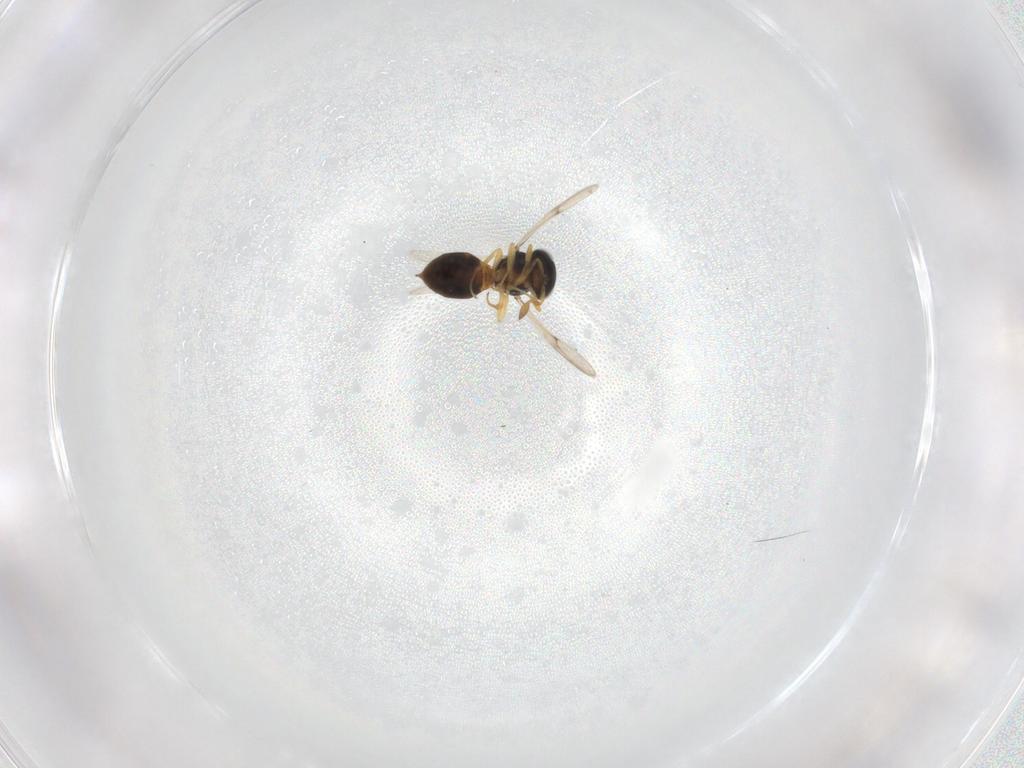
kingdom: Animalia
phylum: Arthropoda
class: Insecta
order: Hymenoptera
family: Scelionidae
